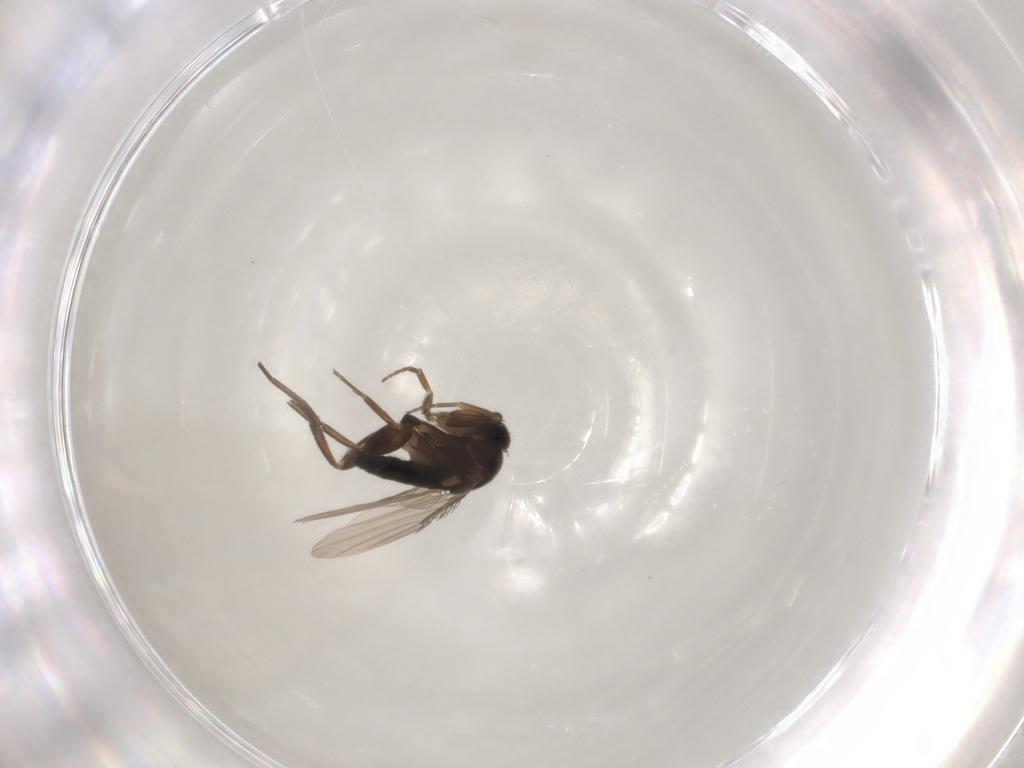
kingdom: Animalia
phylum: Arthropoda
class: Insecta
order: Diptera
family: Phoridae
